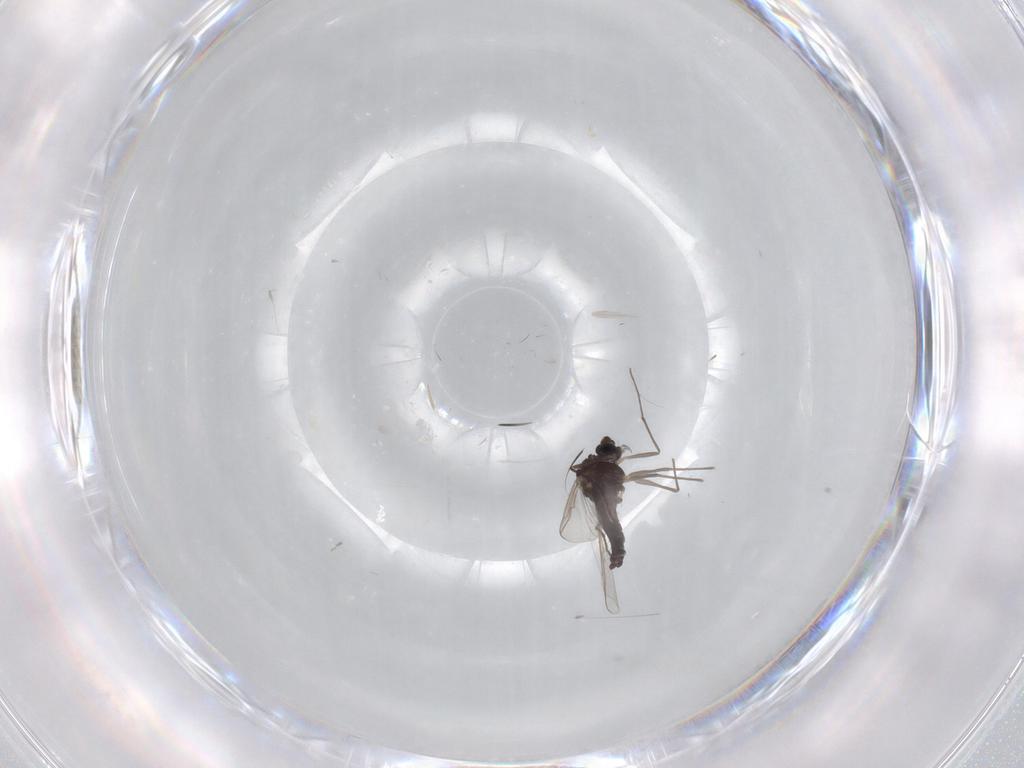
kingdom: Animalia
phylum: Arthropoda
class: Insecta
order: Diptera
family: Chironomidae
